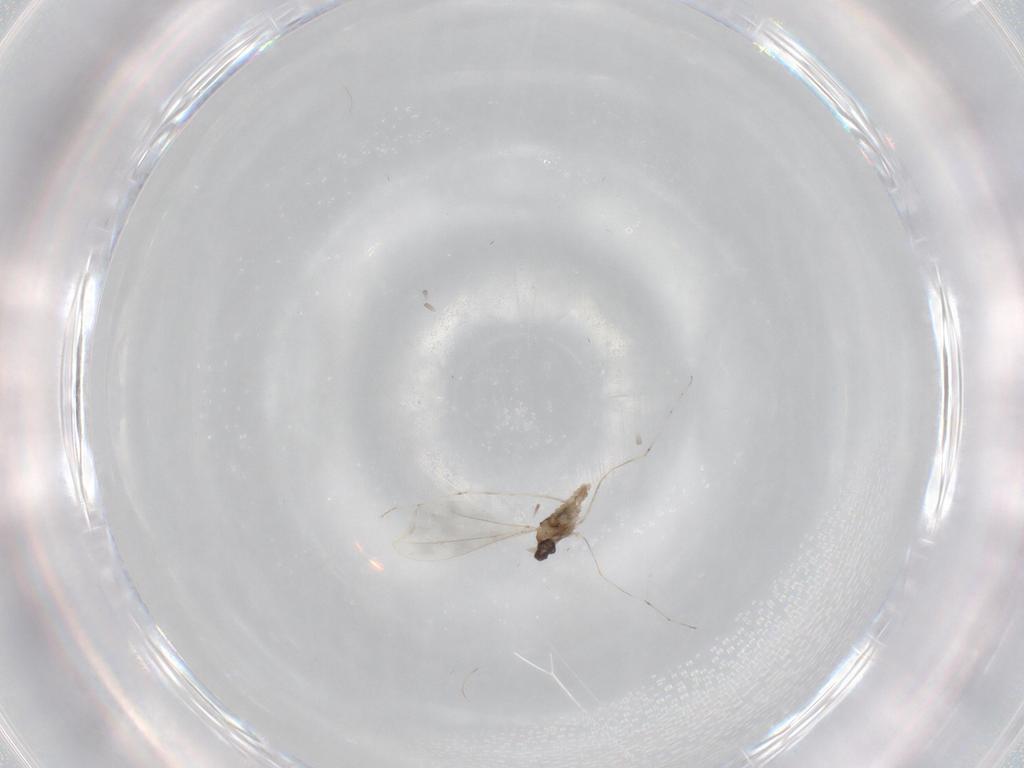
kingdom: Animalia
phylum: Arthropoda
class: Insecta
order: Diptera
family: Cecidomyiidae
